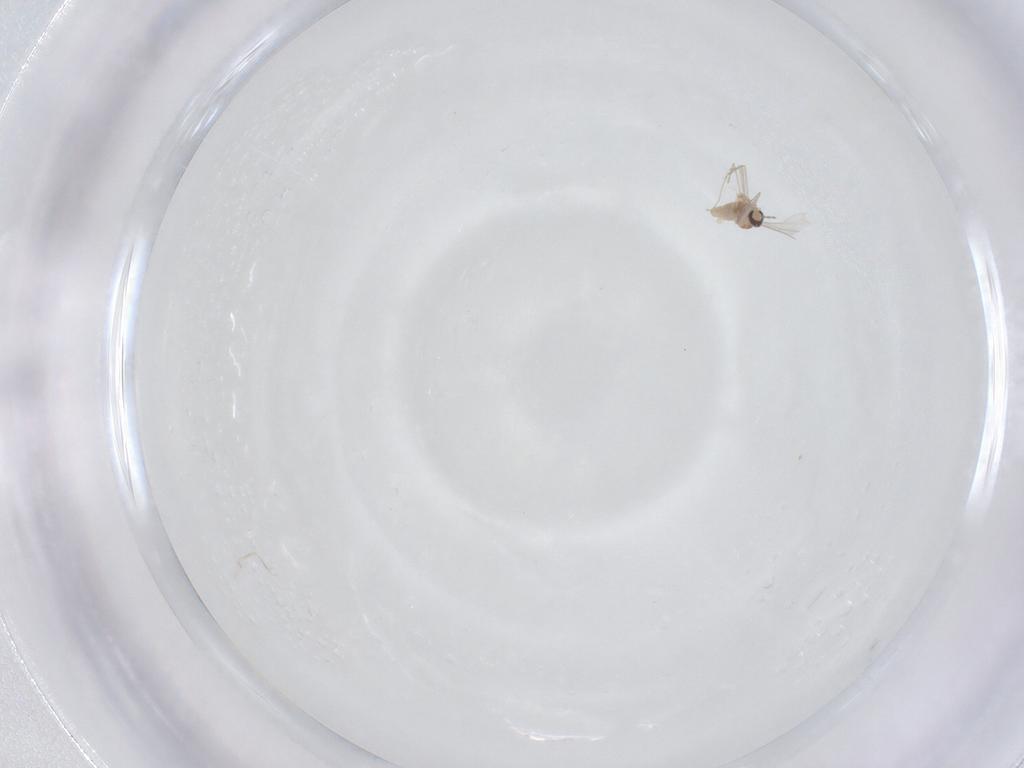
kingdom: Animalia
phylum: Arthropoda
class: Insecta
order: Diptera
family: Cecidomyiidae
